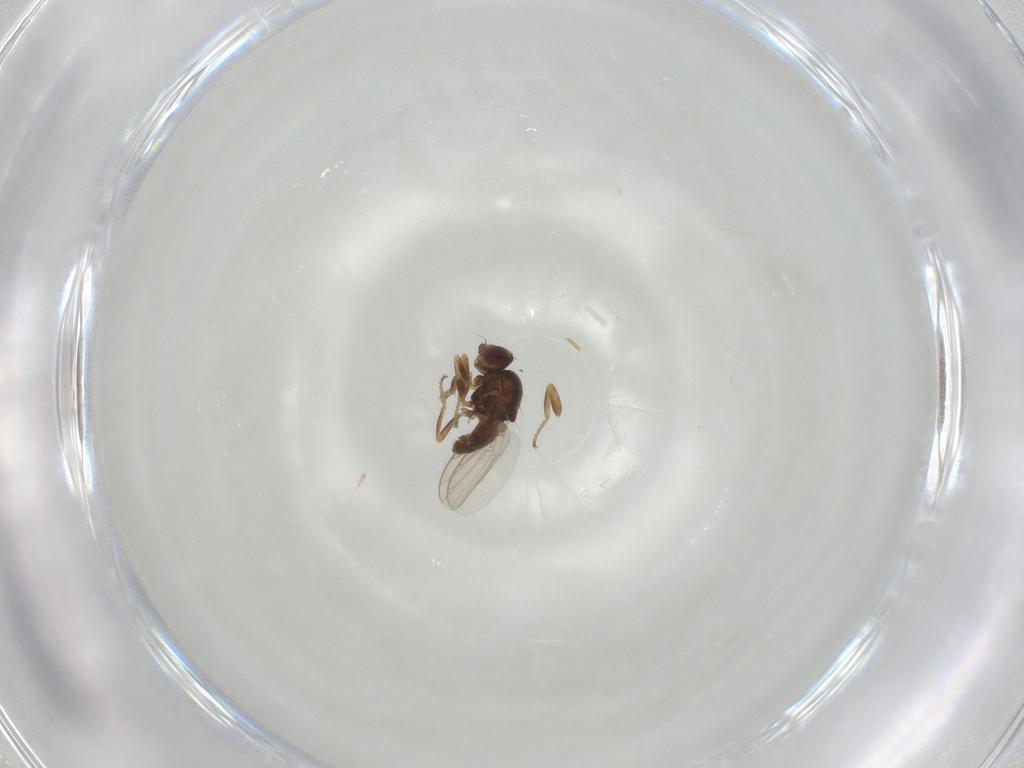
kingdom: Animalia
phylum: Arthropoda
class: Insecta
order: Diptera
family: Chloropidae
